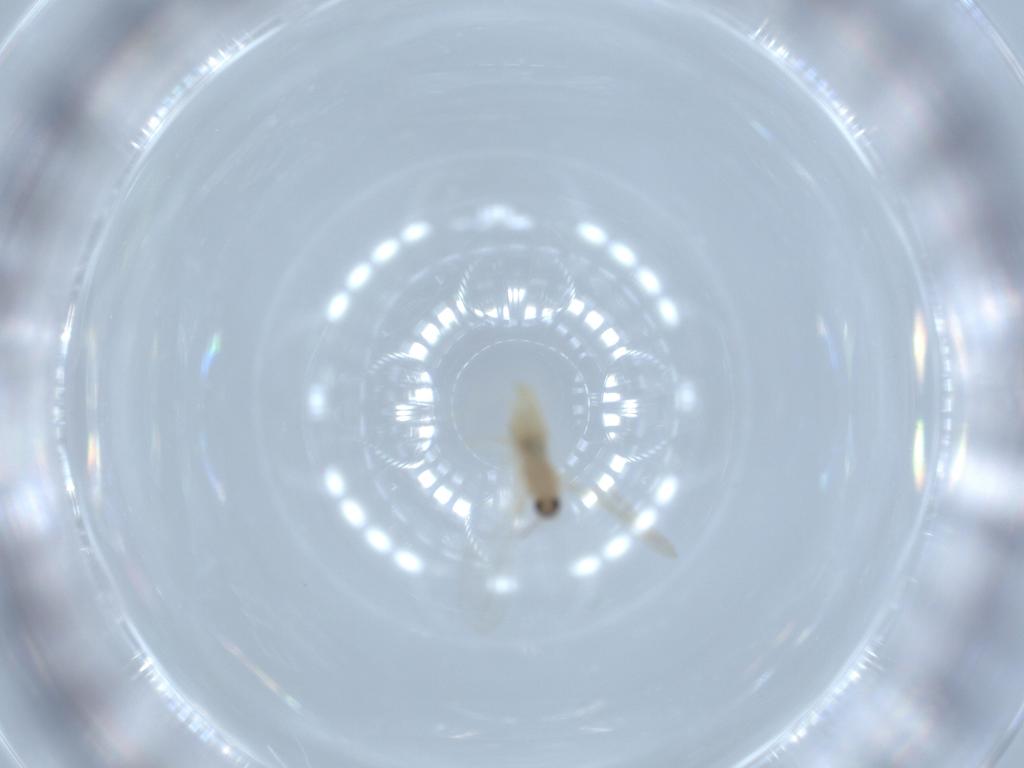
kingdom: Animalia
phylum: Arthropoda
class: Insecta
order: Diptera
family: Cecidomyiidae
